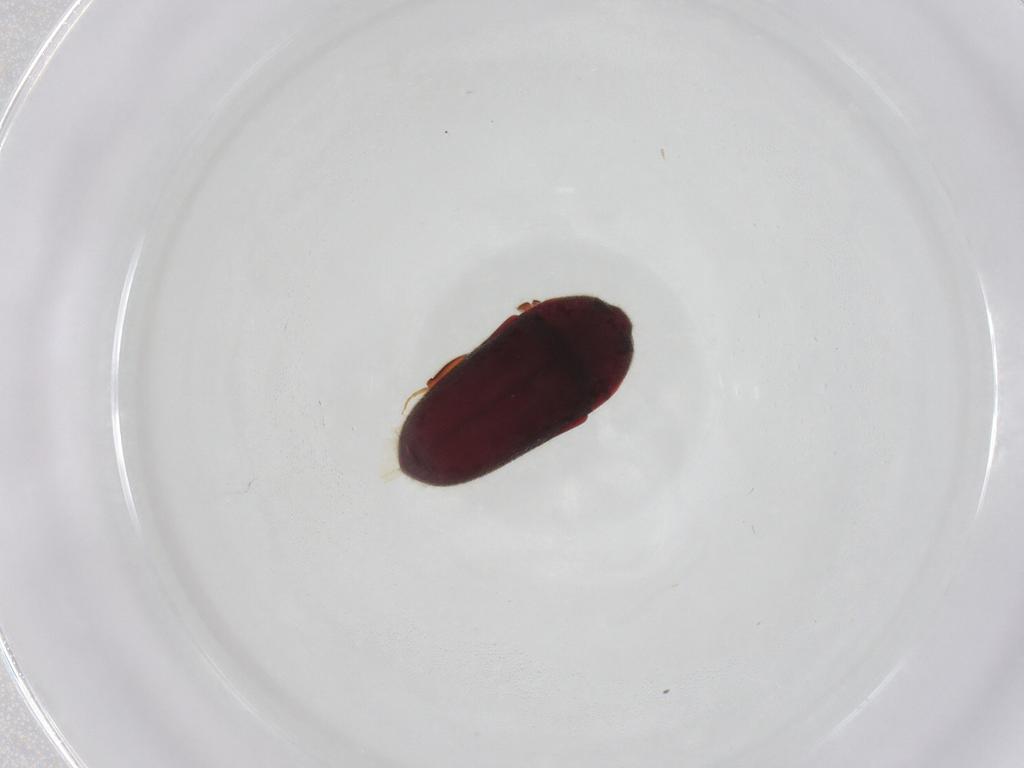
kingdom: Animalia
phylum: Arthropoda
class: Insecta
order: Coleoptera
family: Throscidae
